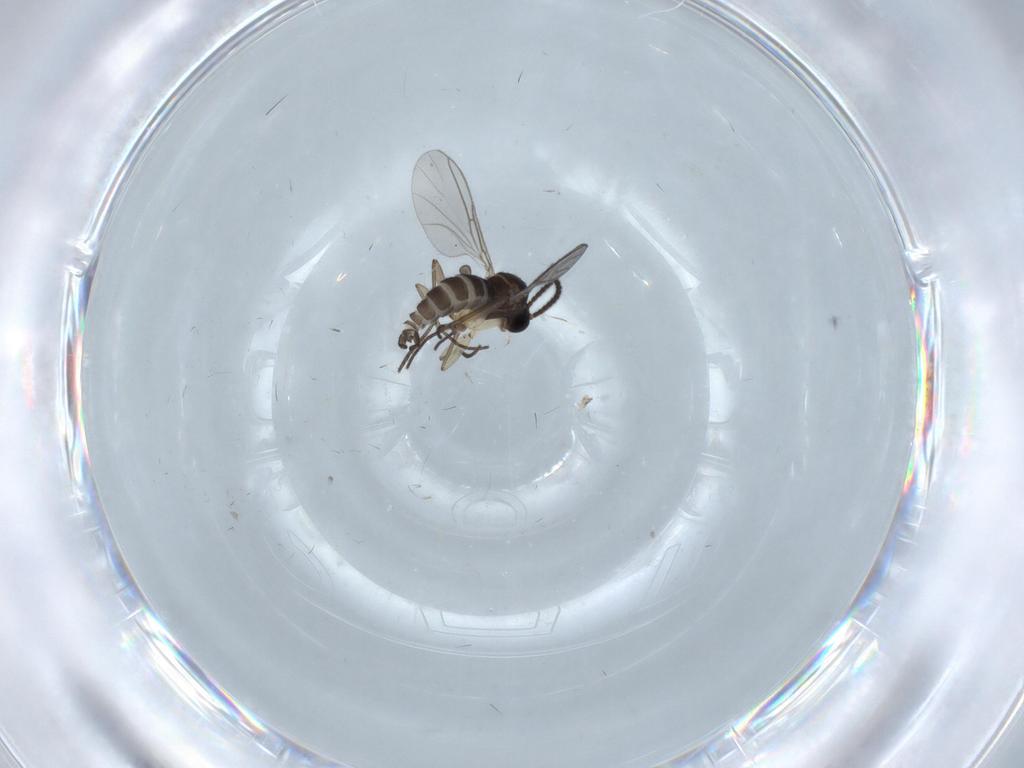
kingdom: Animalia
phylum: Arthropoda
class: Insecta
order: Diptera
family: Sciaridae
